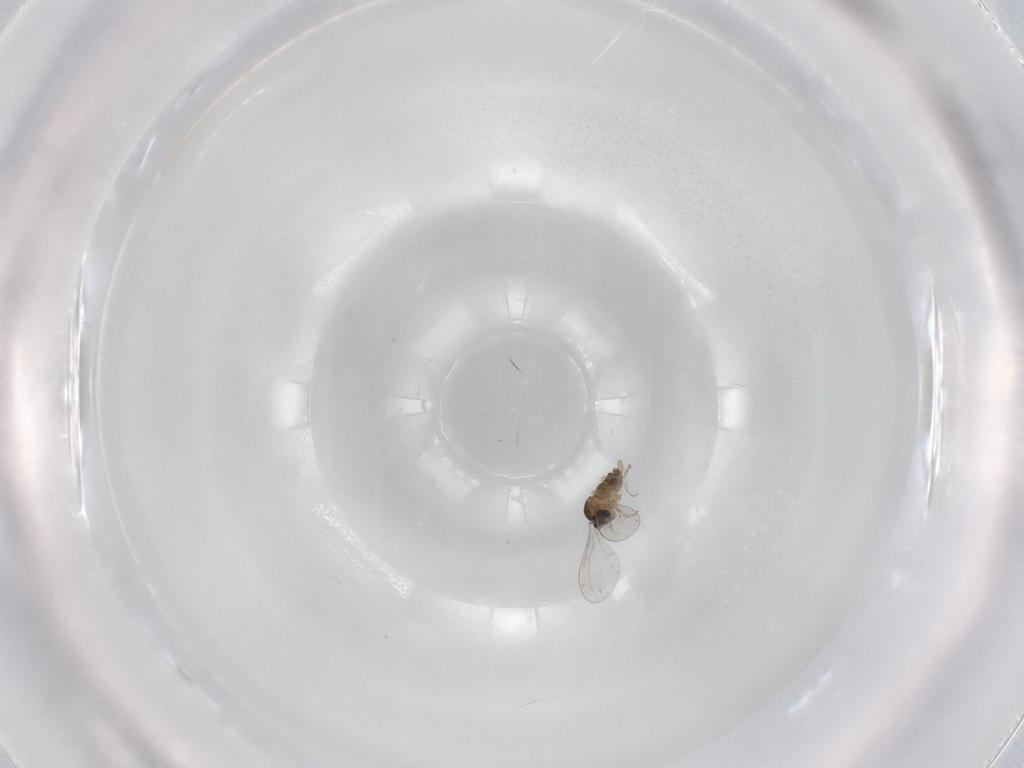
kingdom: Animalia
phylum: Arthropoda
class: Insecta
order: Diptera
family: Cecidomyiidae
